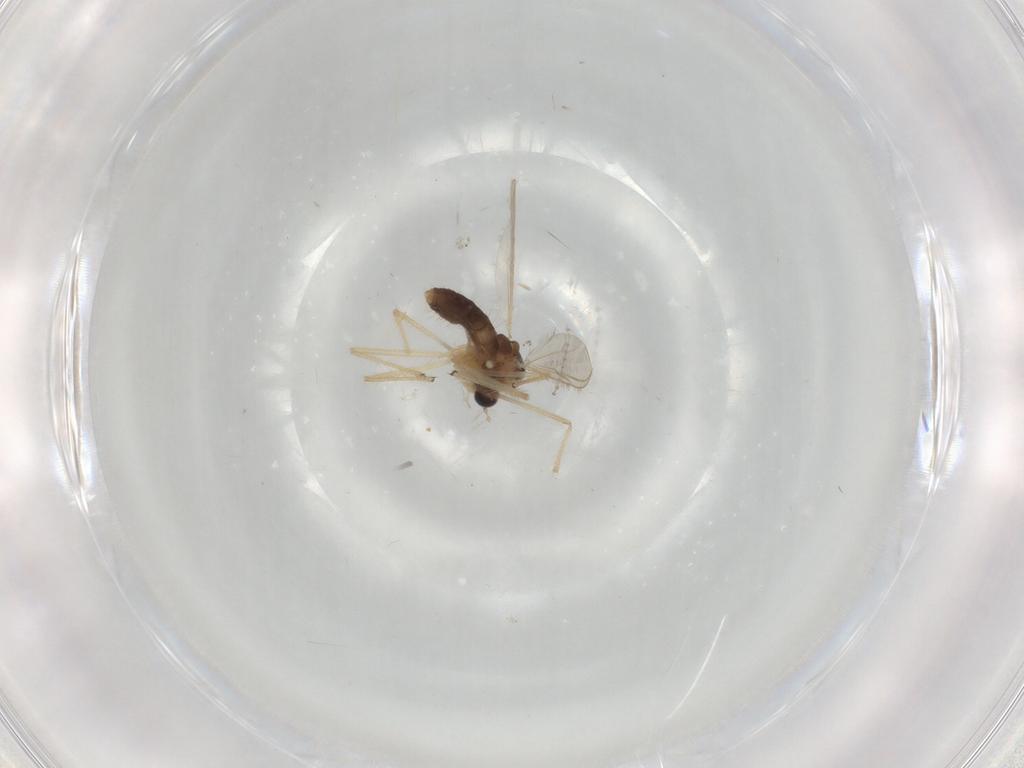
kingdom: Animalia
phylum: Arthropoda
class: Insecta
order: Diptera
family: Chironomidae
